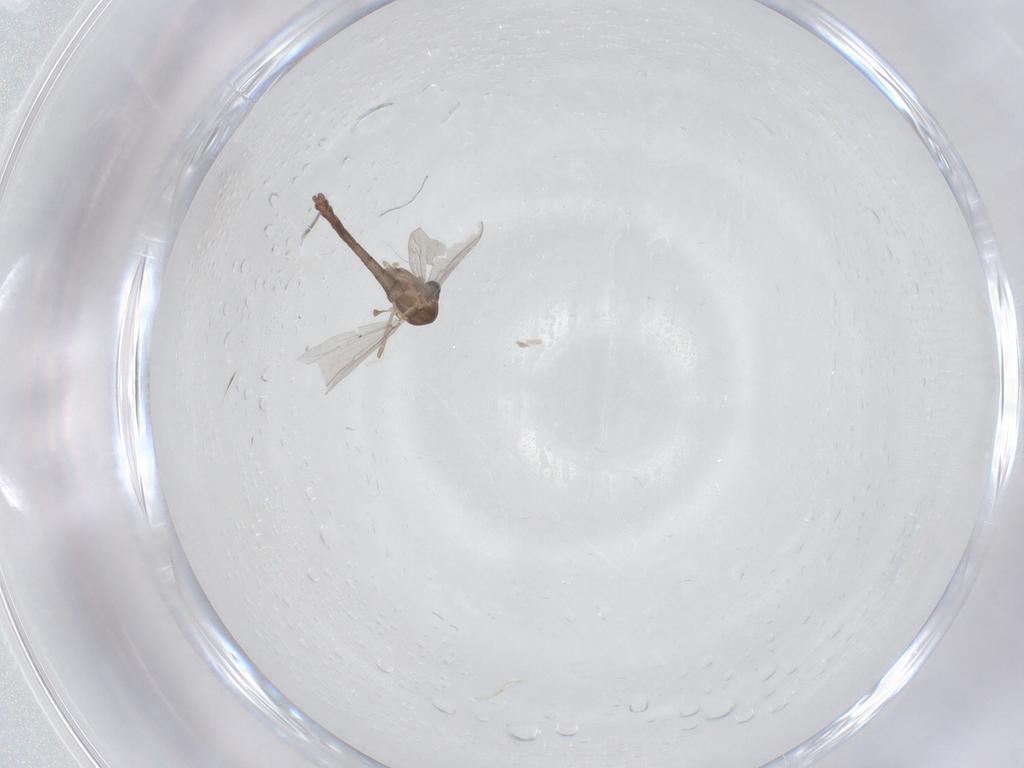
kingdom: Animalia
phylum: Arthropoda
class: Insecta
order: Diptera
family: Chironomidae
